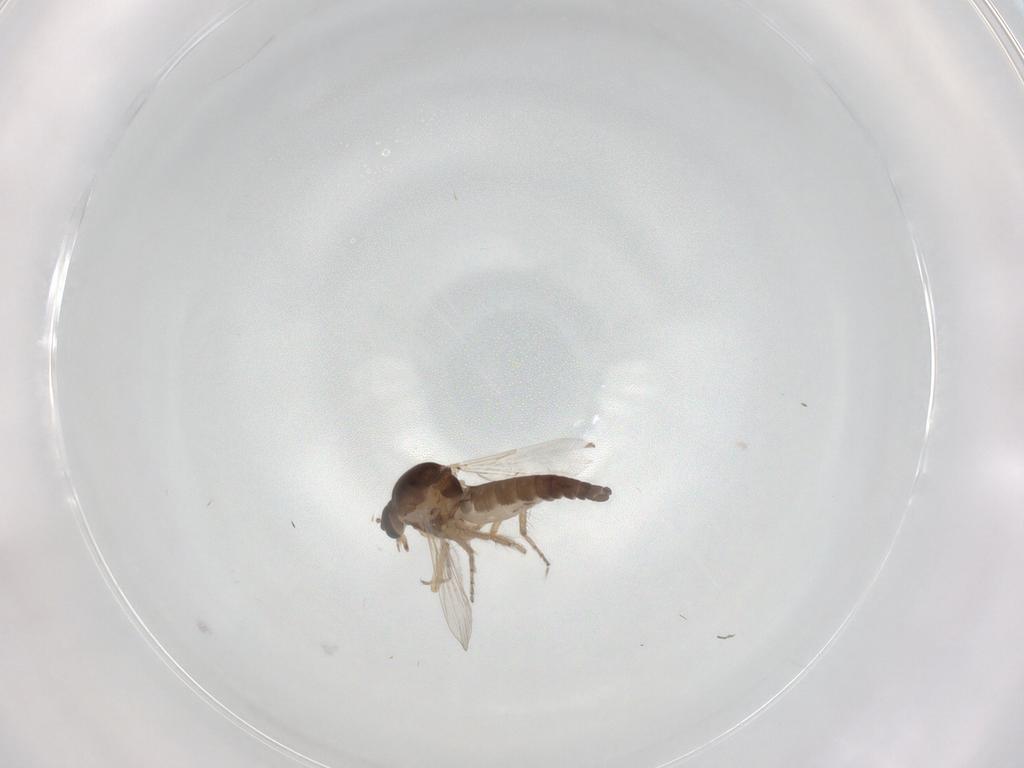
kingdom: Animalia
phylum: Arthropoda
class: Insecta
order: Diptera
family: Ceratopogonidae
